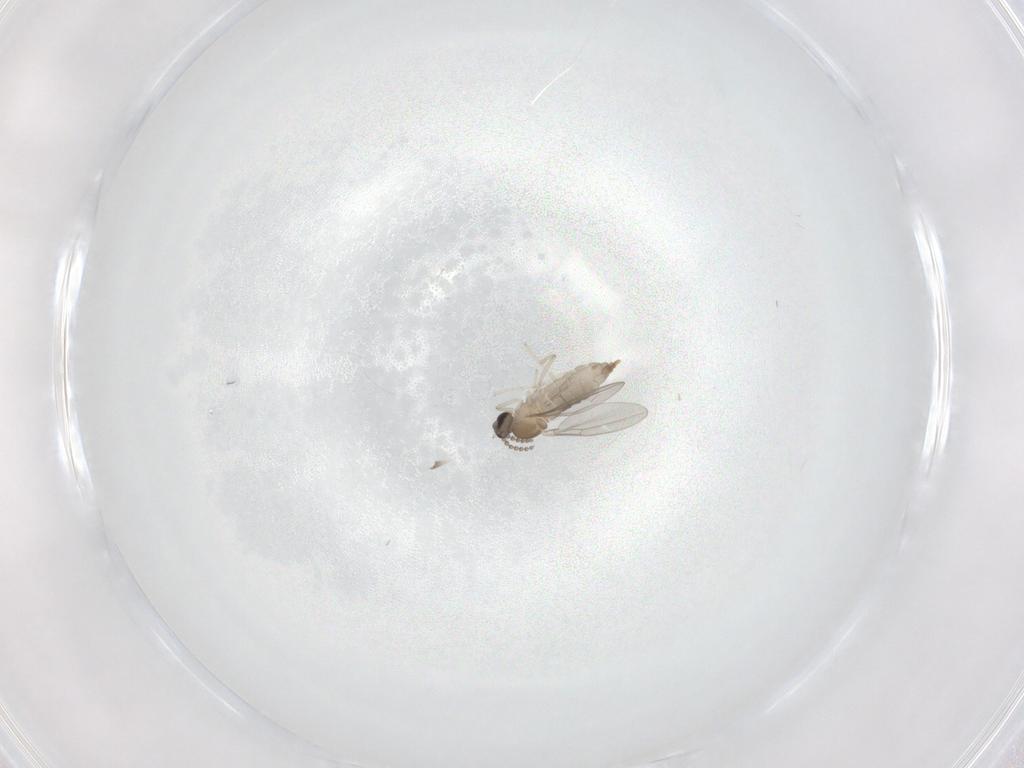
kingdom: Animalia
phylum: Arthropoda
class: Insecta
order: Diptera
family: Cecidomyiidae
